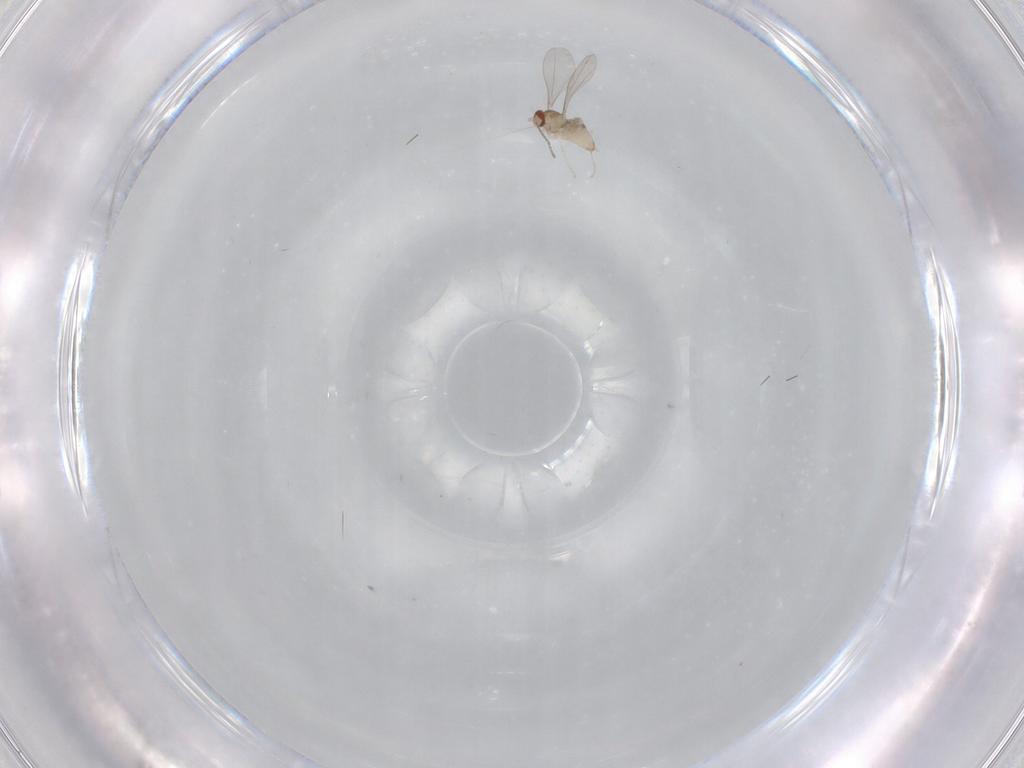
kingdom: Animalia
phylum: Arthropoda
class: Insecta
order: Diptera
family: Cecidomyiidae
